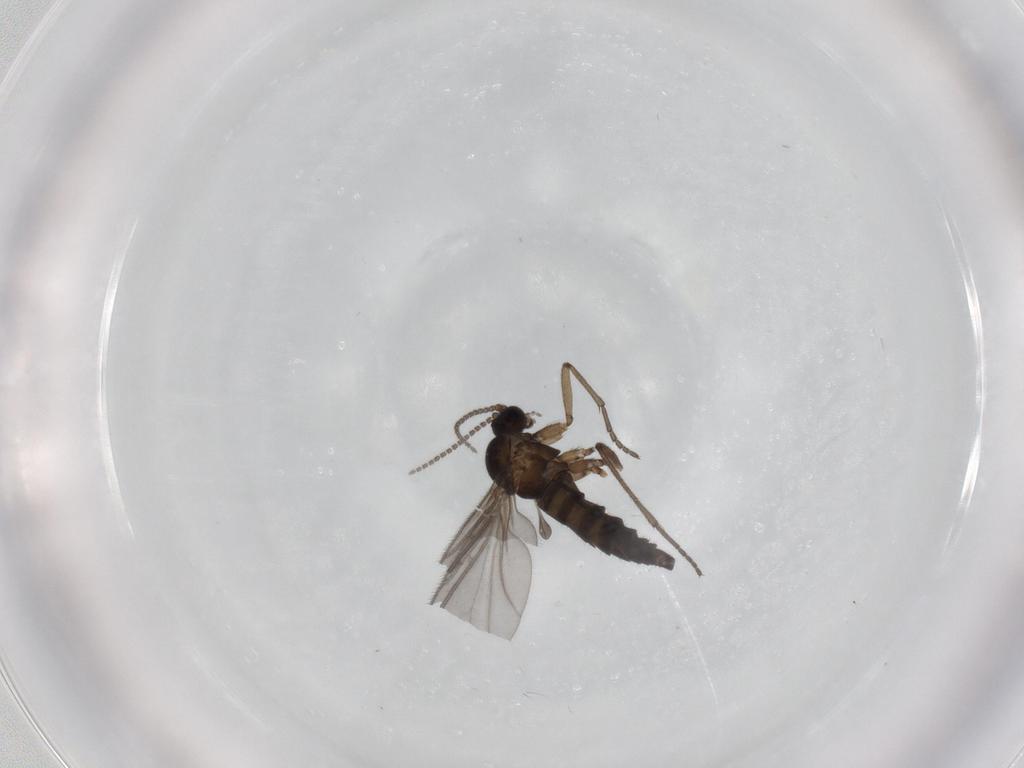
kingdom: Animalia
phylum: Arthropoda
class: Insecta
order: Diptera
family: Sciaridae
